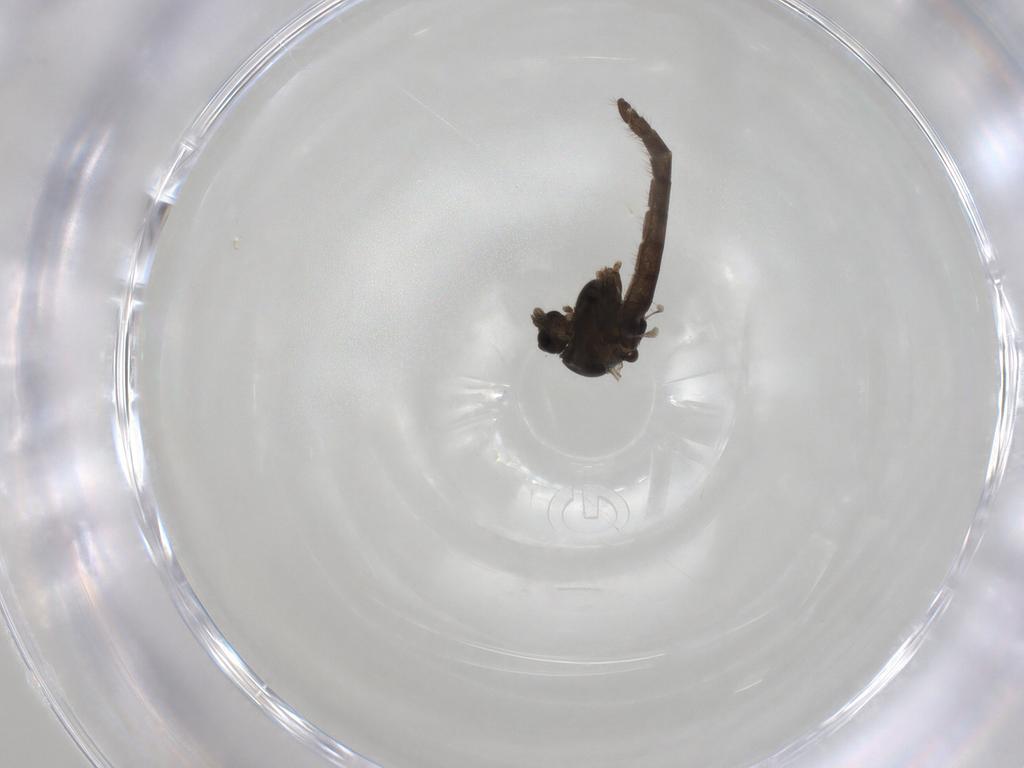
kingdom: Animalia
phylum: Arthropoda
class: Insecta
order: Diptera
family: Chironomidae
